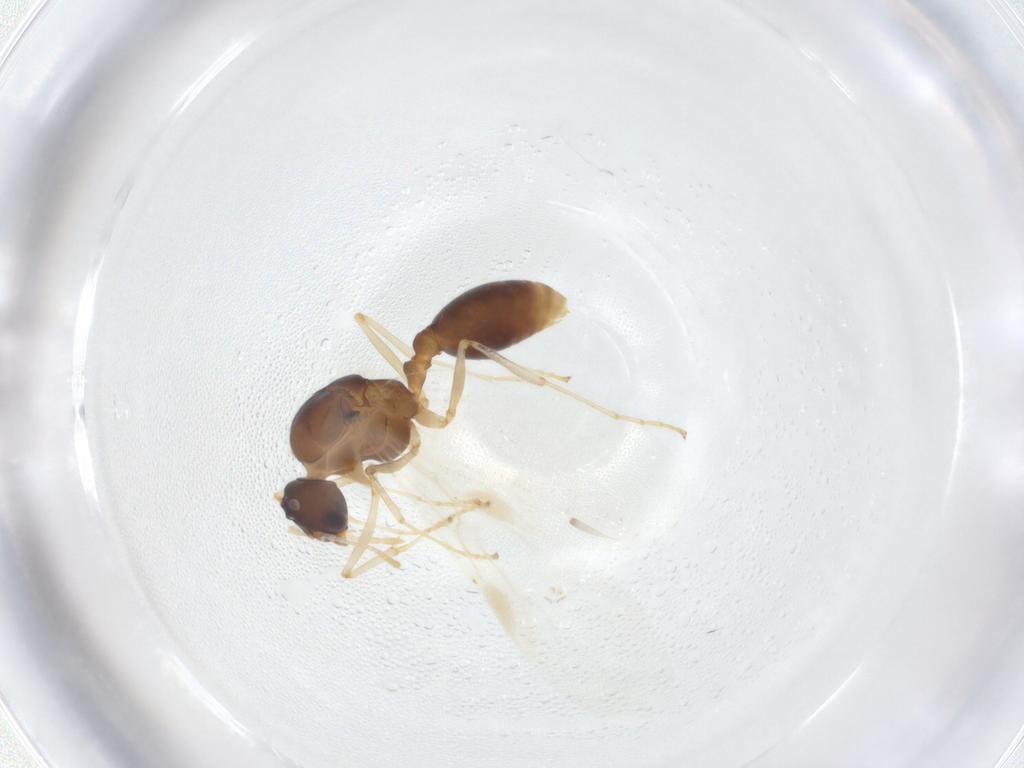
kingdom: Animalia
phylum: Arthropoda
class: Insecta
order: Hymenoptera
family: Formicidae
